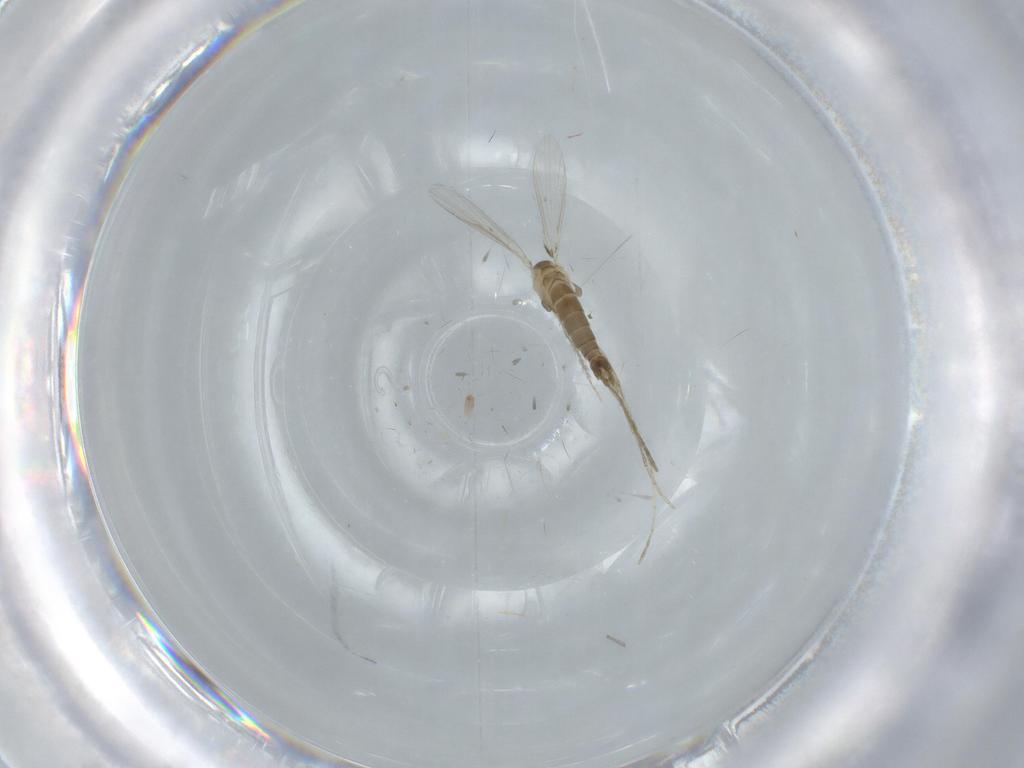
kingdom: Animalia
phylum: Arthropoda
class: Insecta
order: Diptera
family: Psychodidae
